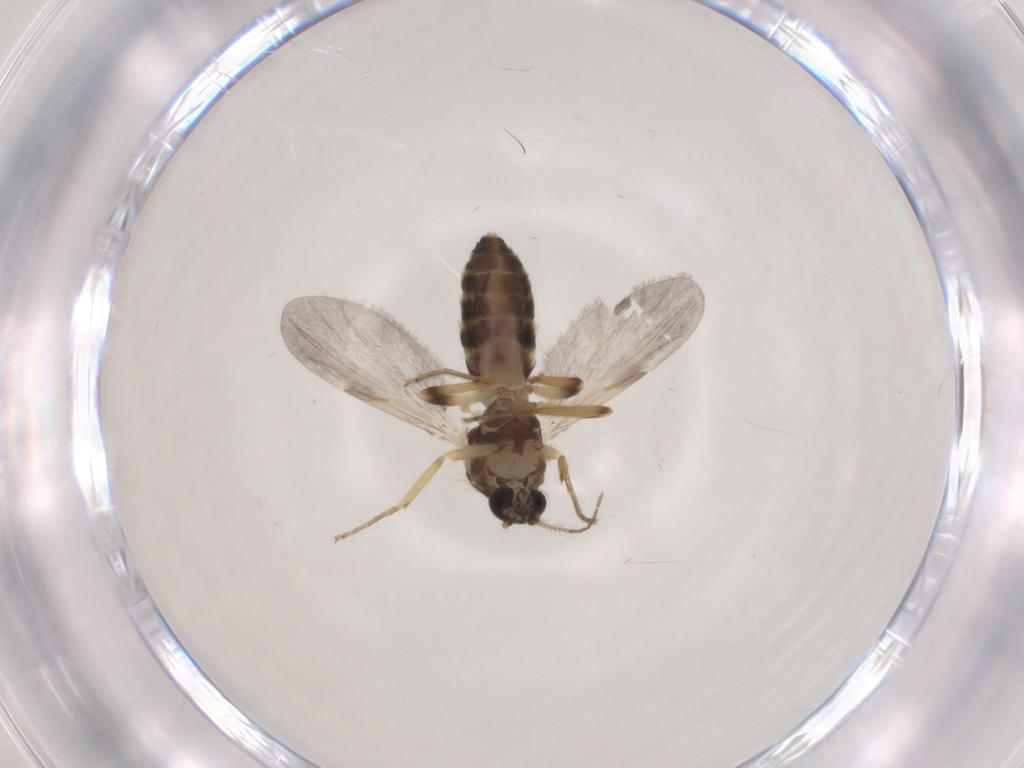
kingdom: Animalia
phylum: Arthropoda
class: Insecta
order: Diptera
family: Ceratopogonidae
